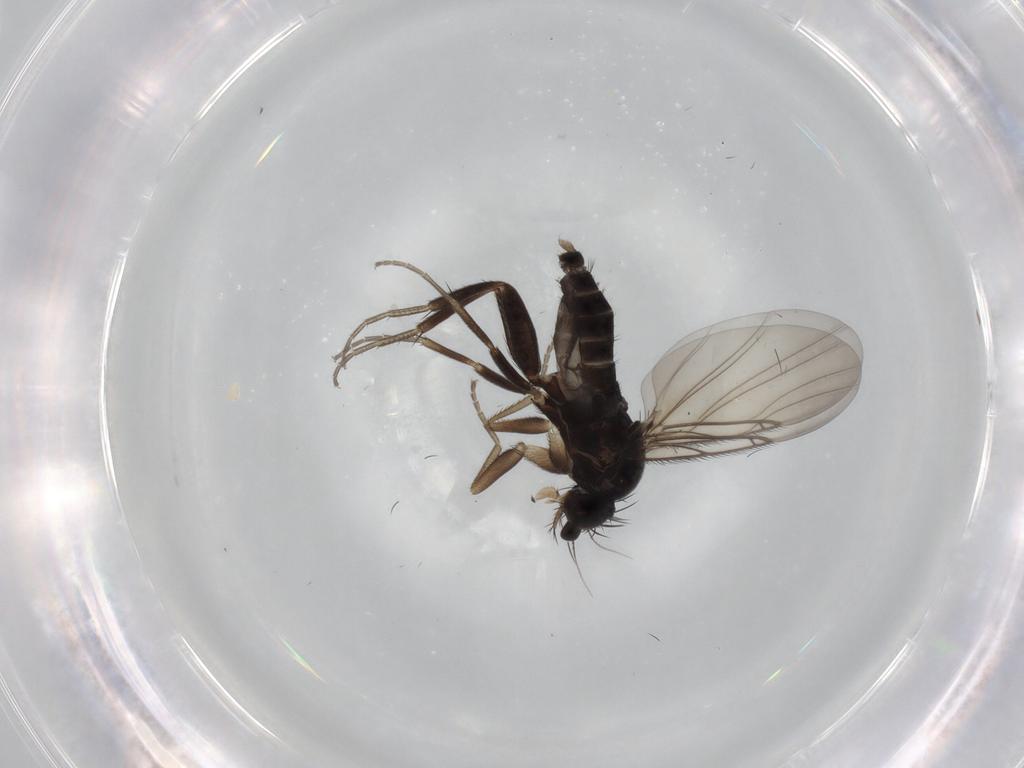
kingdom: Animalia
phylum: Arthropoda
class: Insecta
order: Diptera
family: Phoridae
